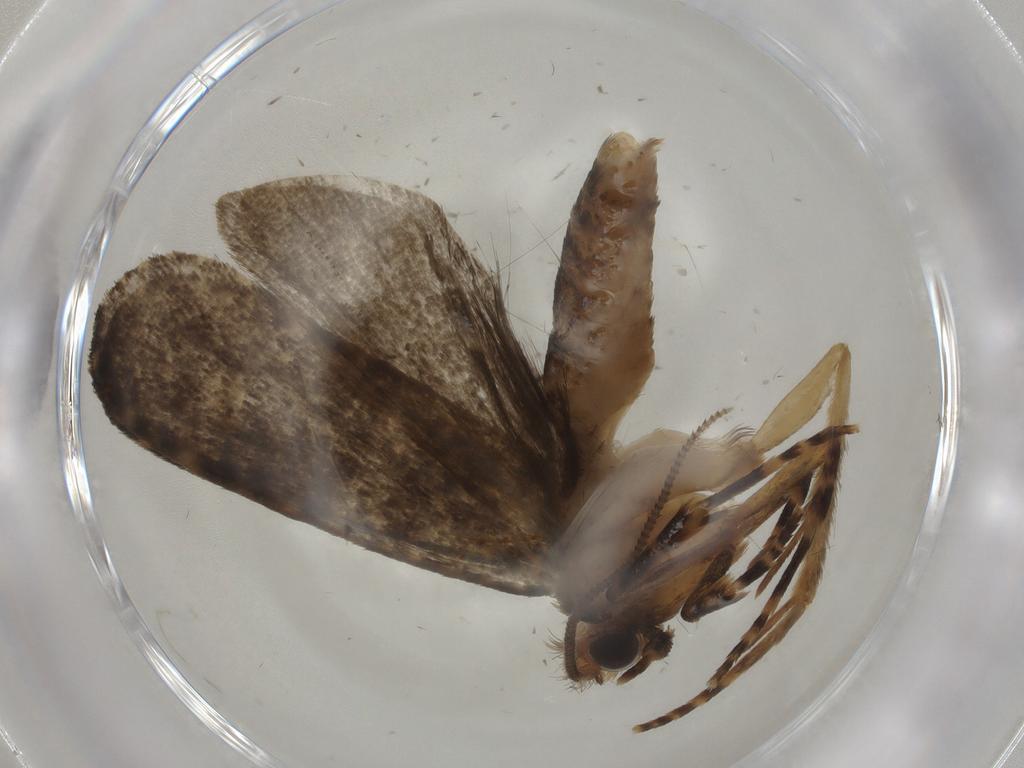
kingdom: Animalia
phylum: Arthropoda
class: Insecta
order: Lepidoptera
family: Tineidae
